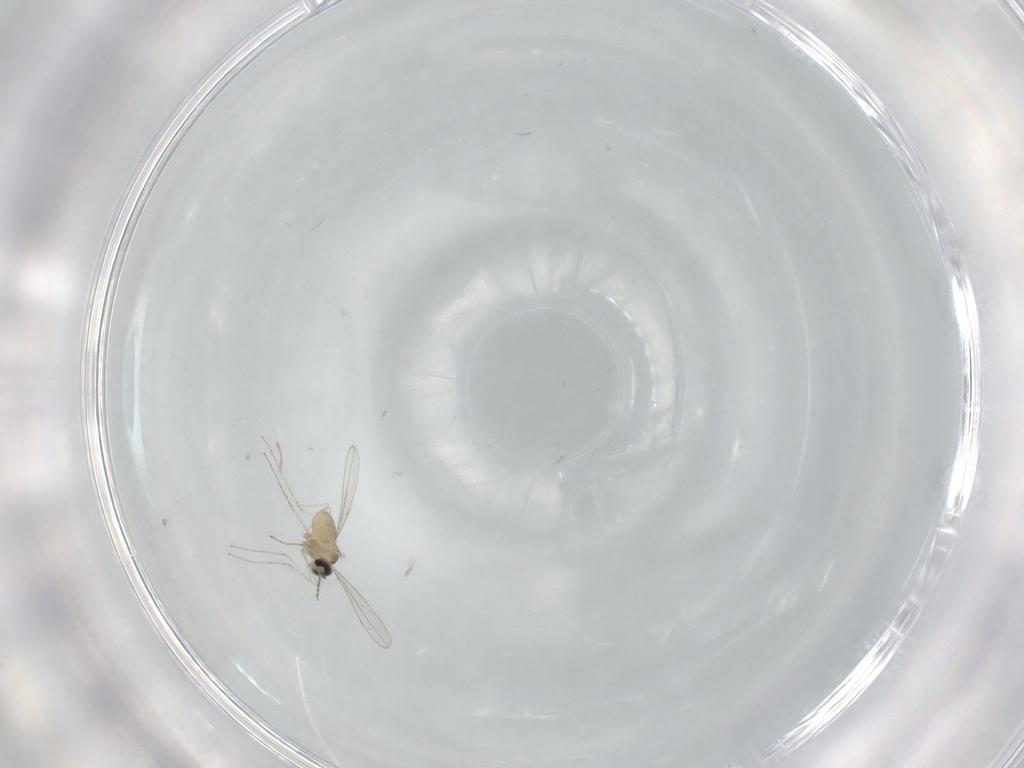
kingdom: Animalia
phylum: Arthropoda
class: Insecta
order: Diptera
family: Cecidomyiidae
